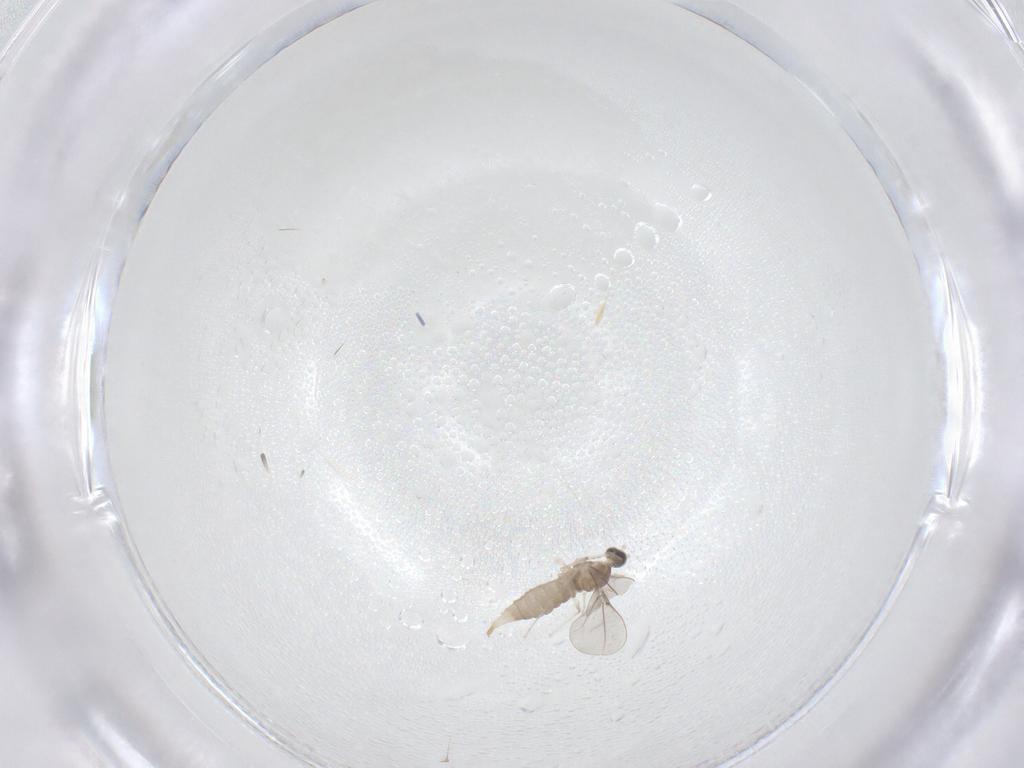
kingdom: Animalia
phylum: Arthropoda
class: Insecta
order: Diptera
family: Cecidomyiidae
